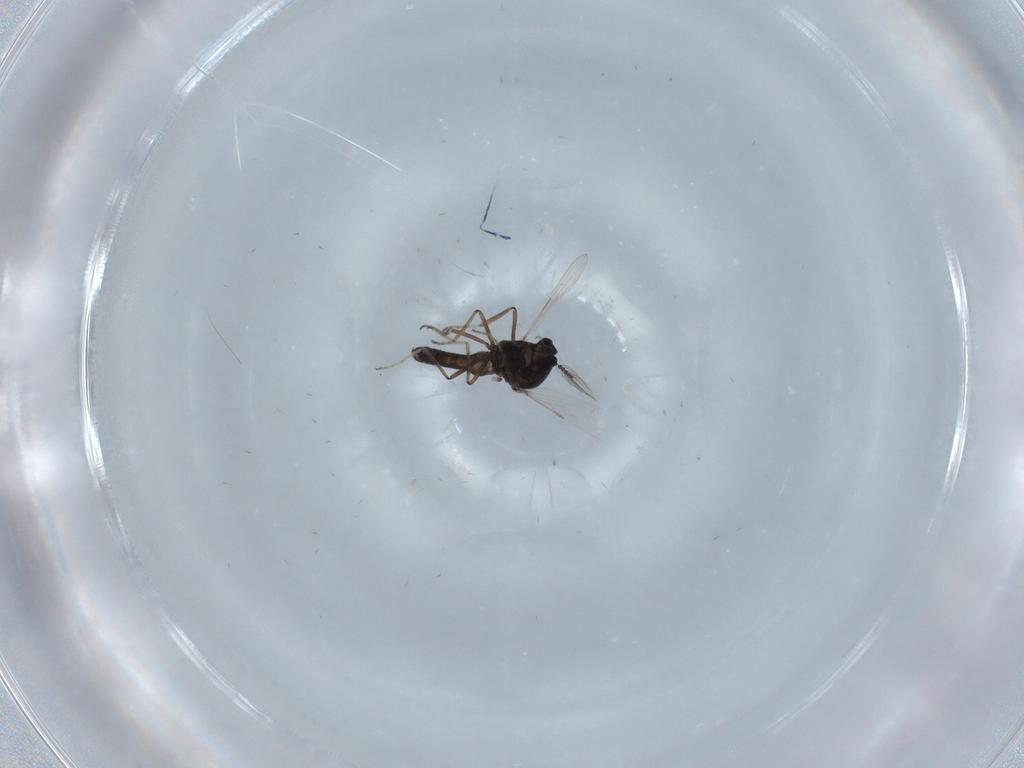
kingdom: Animalia
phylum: Arthropoda
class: Insecta
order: Diptera
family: Ceratopogonidae
